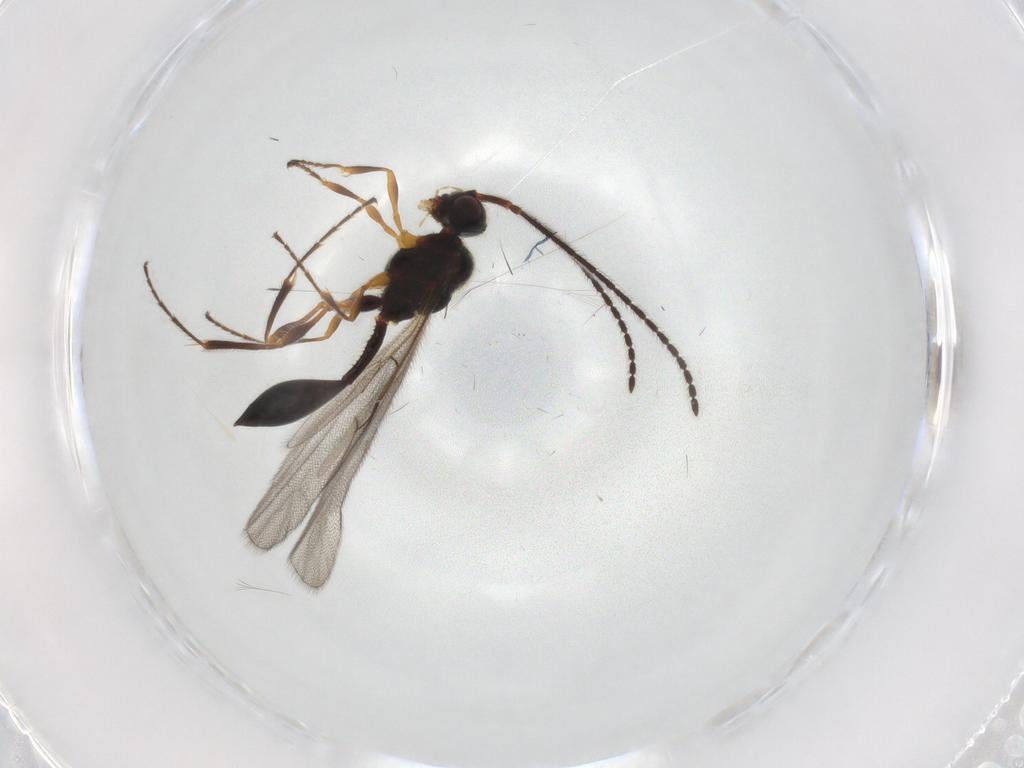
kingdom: Animalia
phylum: Arthropoda
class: Insecta
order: Hymenoptera
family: Diapriidae
